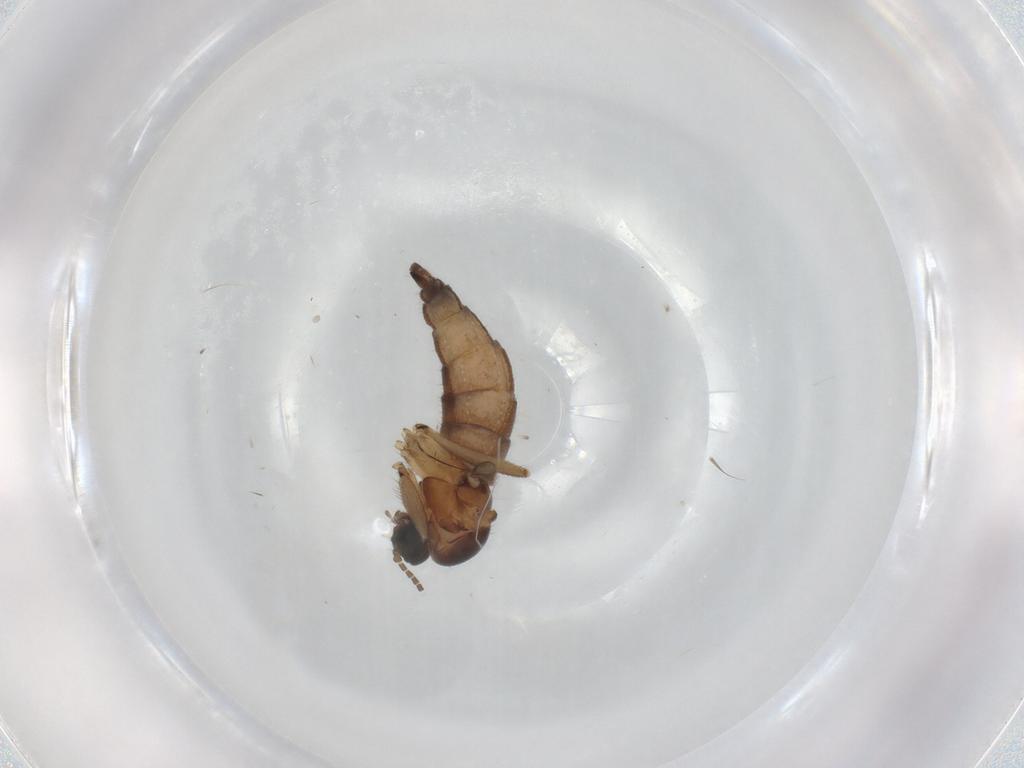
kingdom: Animalia
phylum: Arthropoda
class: Insecta
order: Diptera
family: Sciaridae
